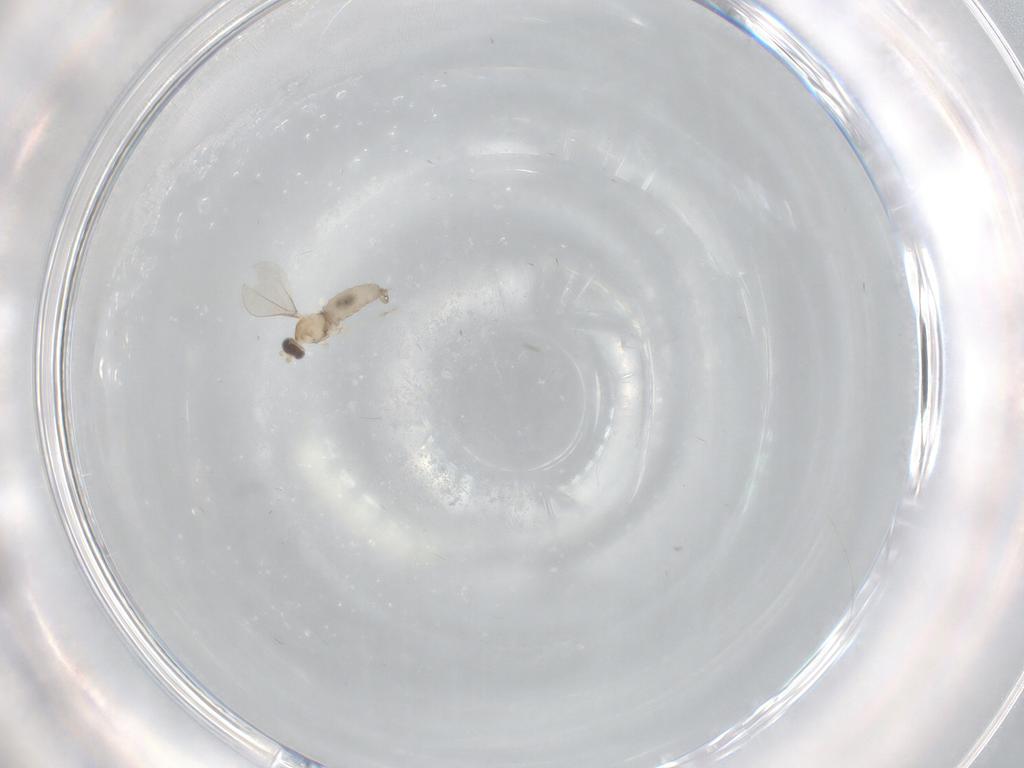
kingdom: Animalia
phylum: Arthropoda
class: Insecta
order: Diptera
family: Cecidomyiidae
